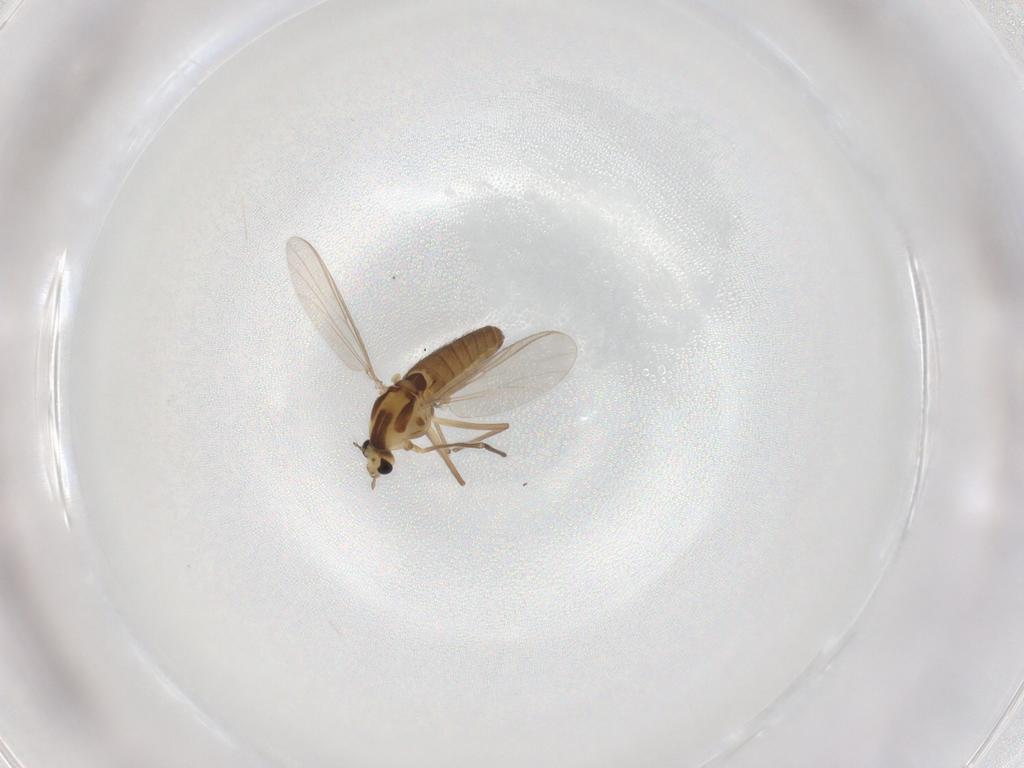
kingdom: Animalia
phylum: Arthropoda
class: Insecta
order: Diptera
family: Chironomidae
